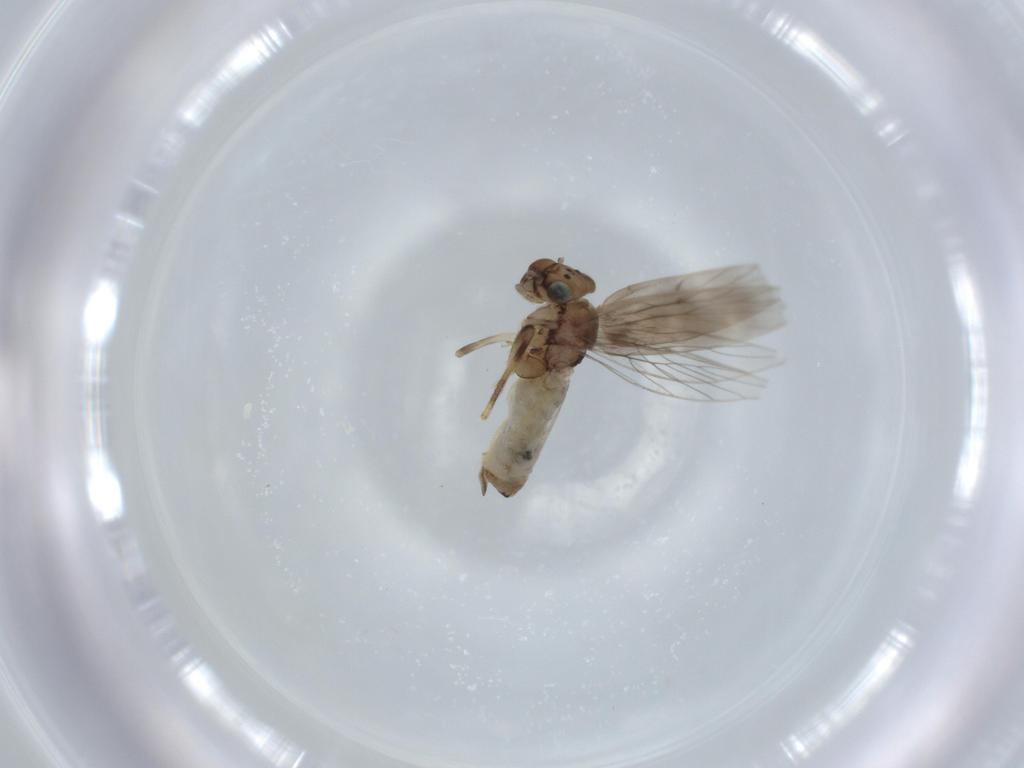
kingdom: Animalia
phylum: Arthropoda
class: Insecta
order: Psocodea
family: Lepidopsocidae
